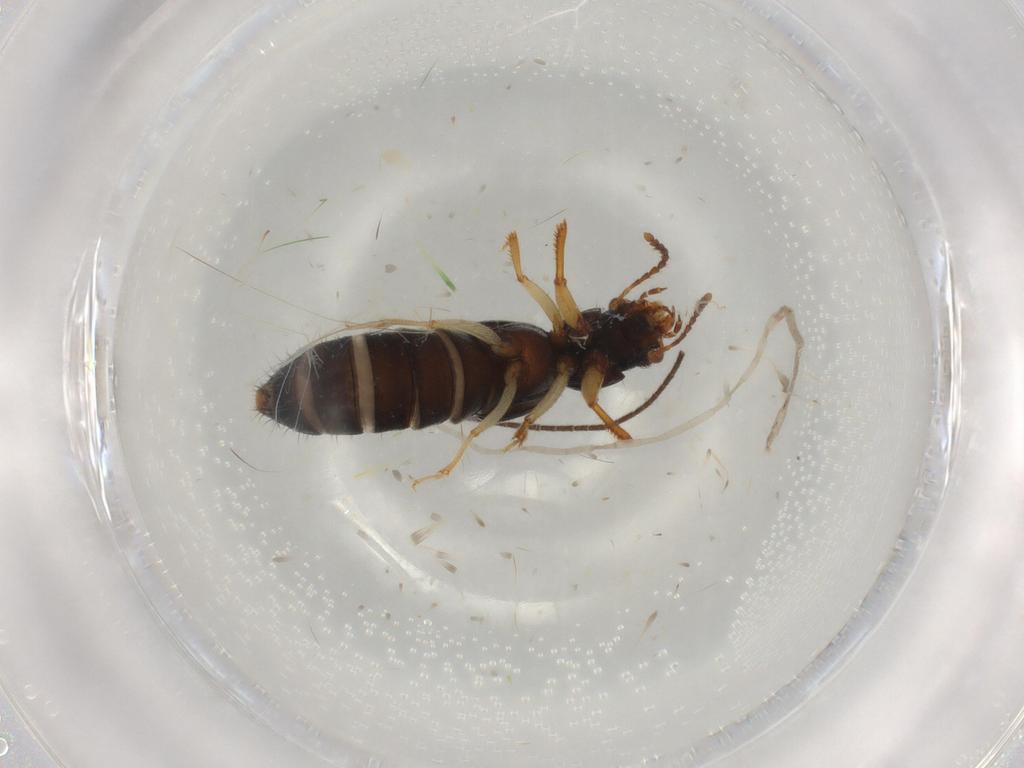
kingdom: Animalia
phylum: Arthropoda
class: Insecta
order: Coleoptera
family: Staphylinidae
